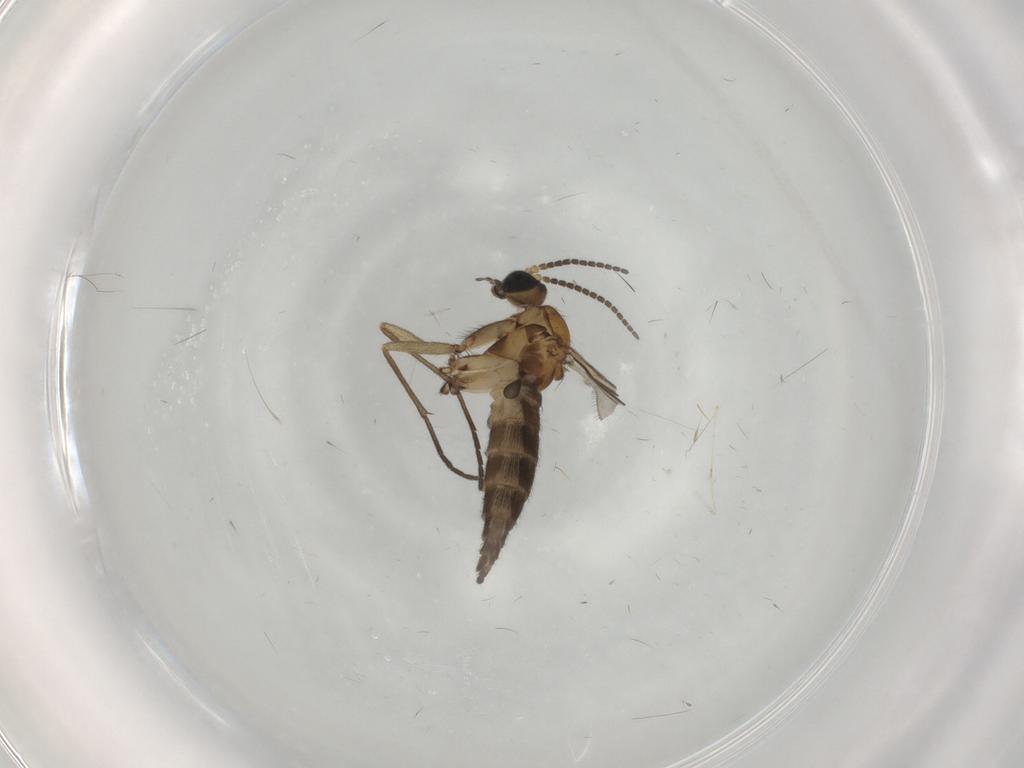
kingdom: Animalia
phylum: Arthropoda
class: Insecta
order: Diptera
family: Sciaridae
